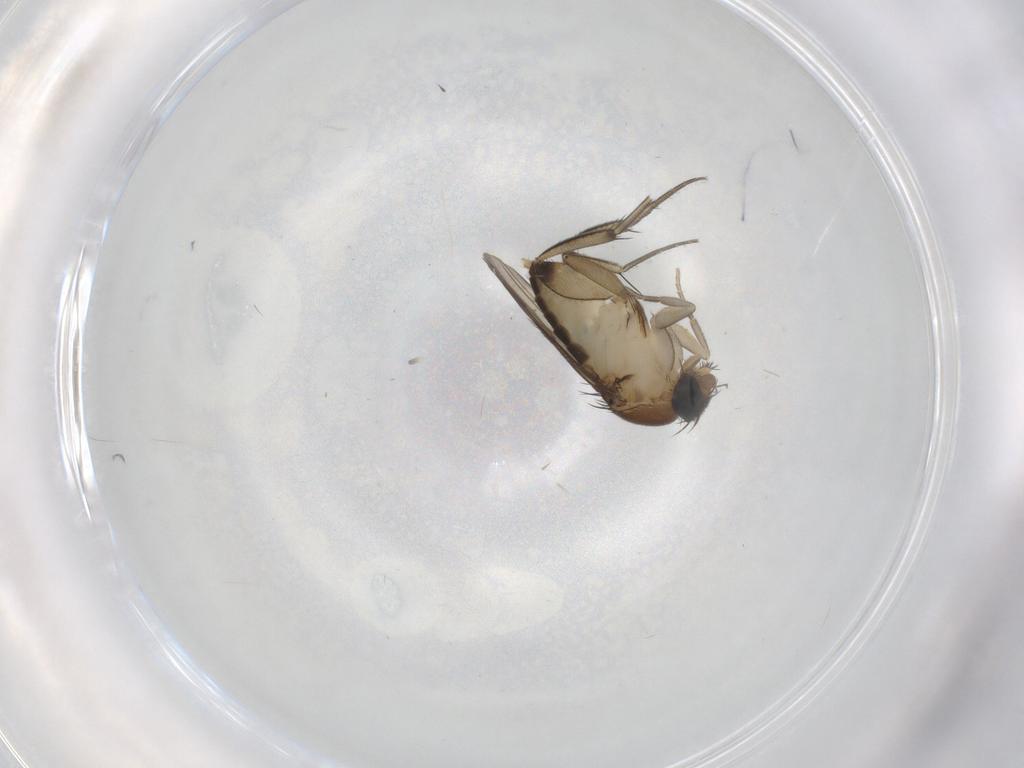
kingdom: Animalia
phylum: Arthropoda
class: Insecta
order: Diptera
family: Phoridae
